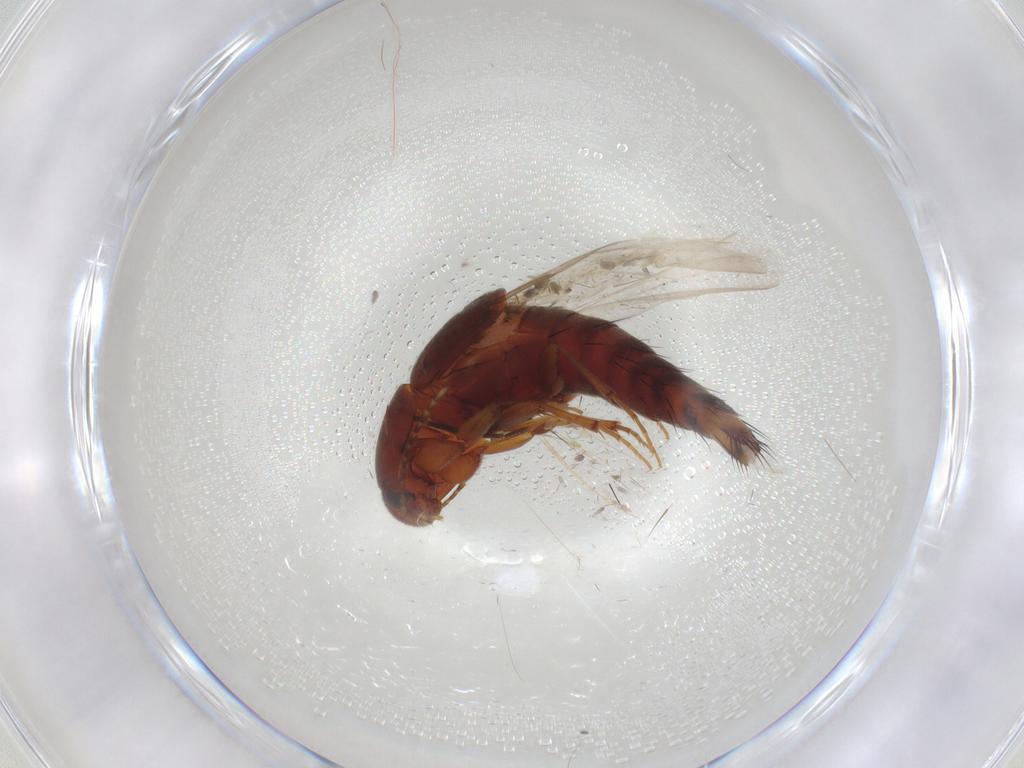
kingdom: Animalia
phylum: Arthropoda
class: Insecta
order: Coleoptera
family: Staphylinidae
